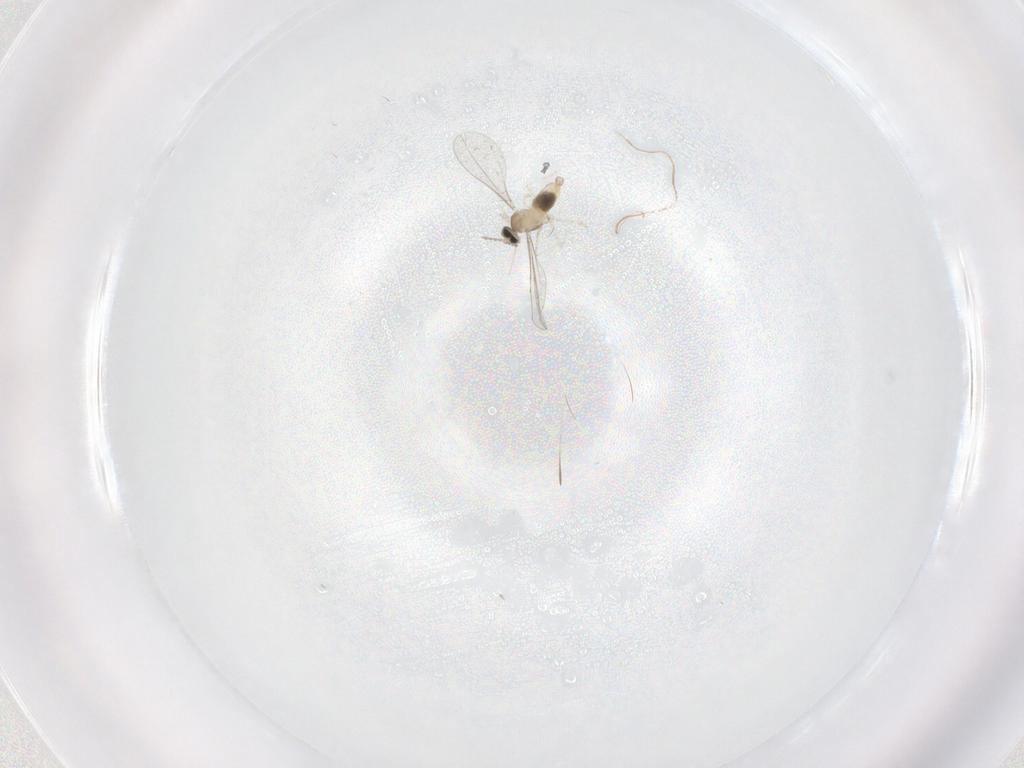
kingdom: Animalia
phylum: Arthropoda
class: Insecta
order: Diptera
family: Cecidomyiidae
